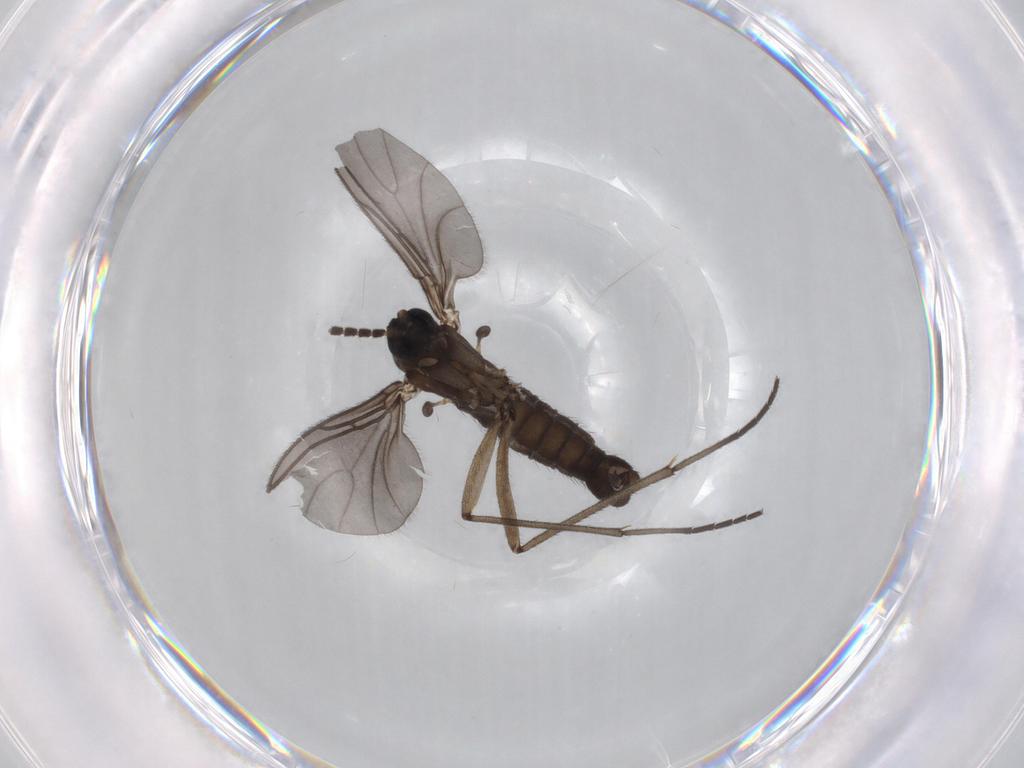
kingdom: Animalia
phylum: Arthropoda
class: Insecta
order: Diptera
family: Sciaridae
